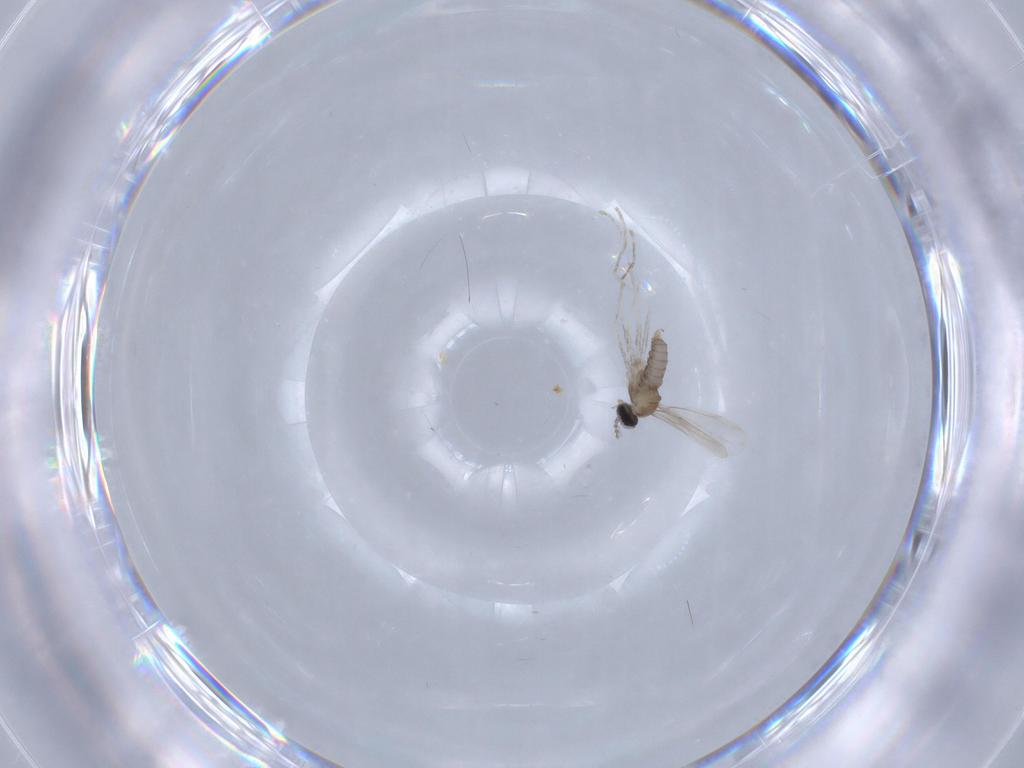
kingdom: Animalia
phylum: Arthropoda
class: Insecta
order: Diptera
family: Cecidomyiidae
